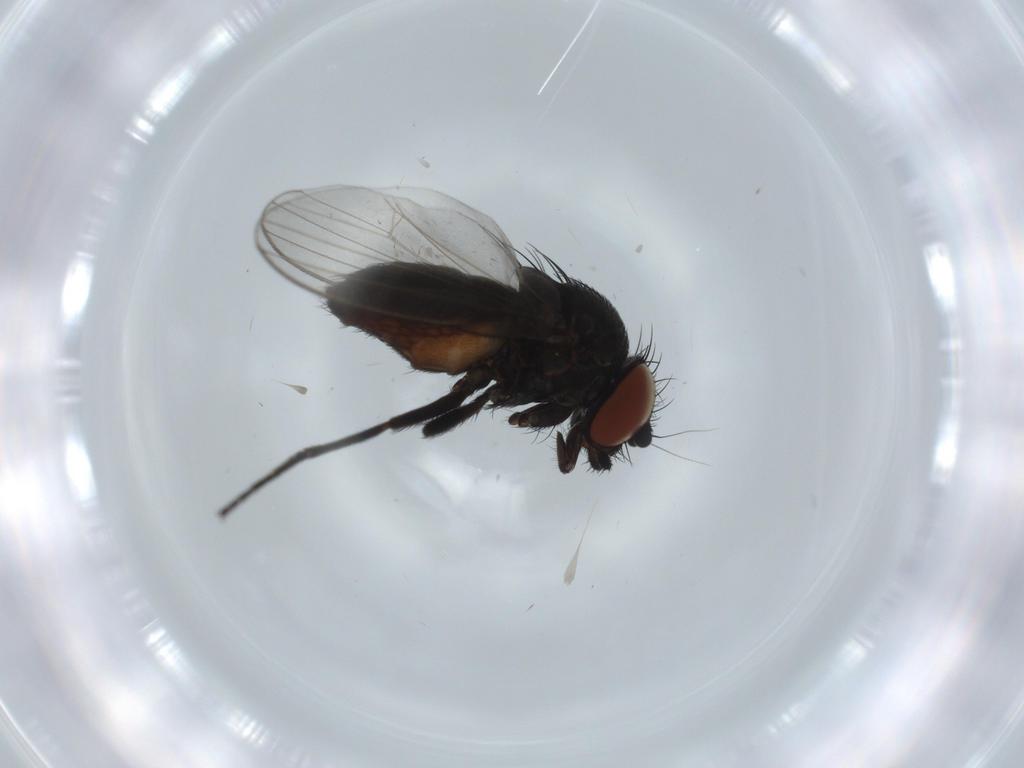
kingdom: Animalia
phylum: Arthropoda
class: Insecta
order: Diptera
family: Milichiidae
